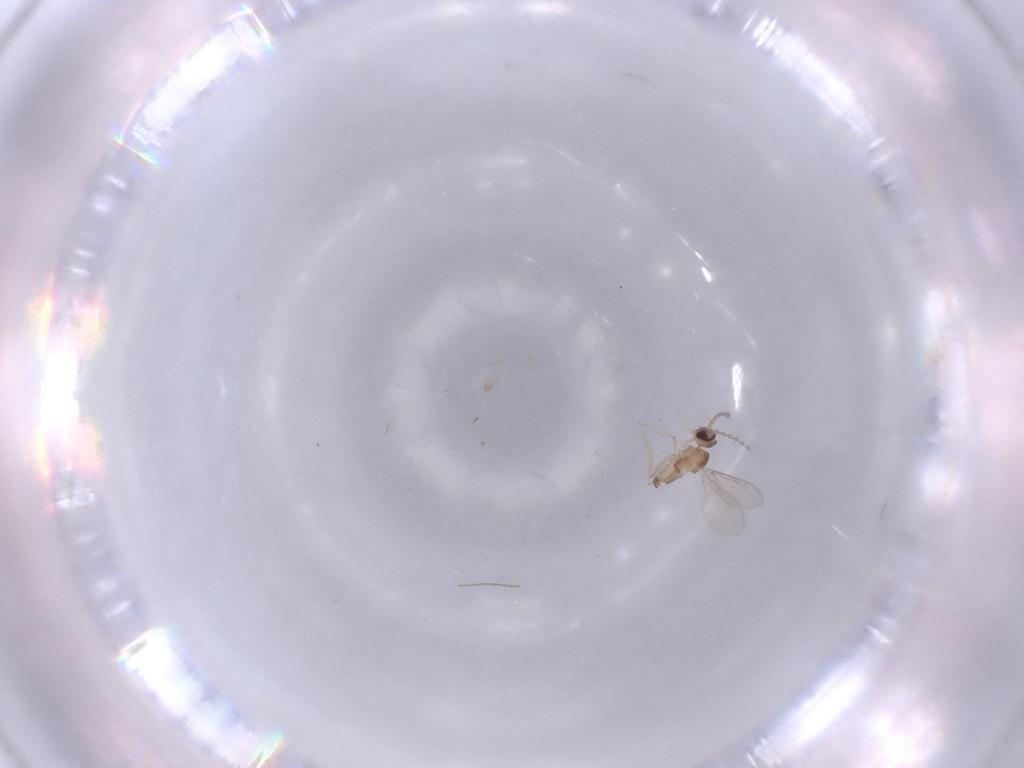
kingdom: Animalia
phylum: Arthropoda
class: Insecta
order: Diptera
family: Chironomidae
